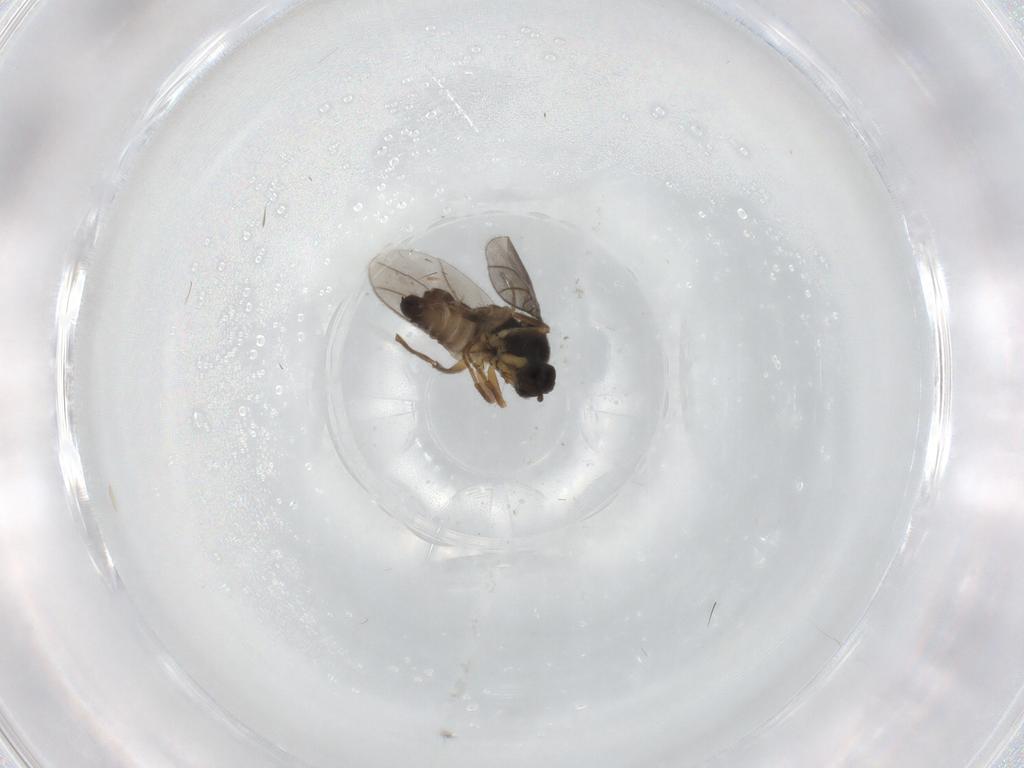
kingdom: Animalia
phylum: Arthropoda
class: Insecta
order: Diptera
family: Hybotidae
